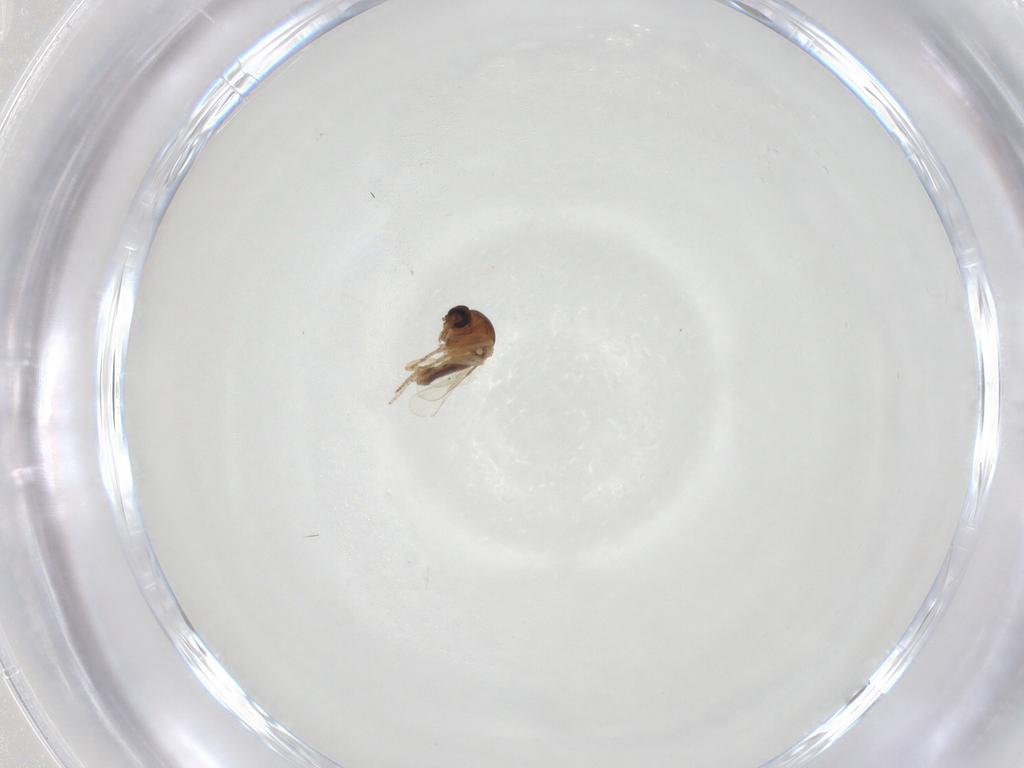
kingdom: Animalia
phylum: Arthropoda
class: Insecta
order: Diptera
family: Ceratopogonidae
